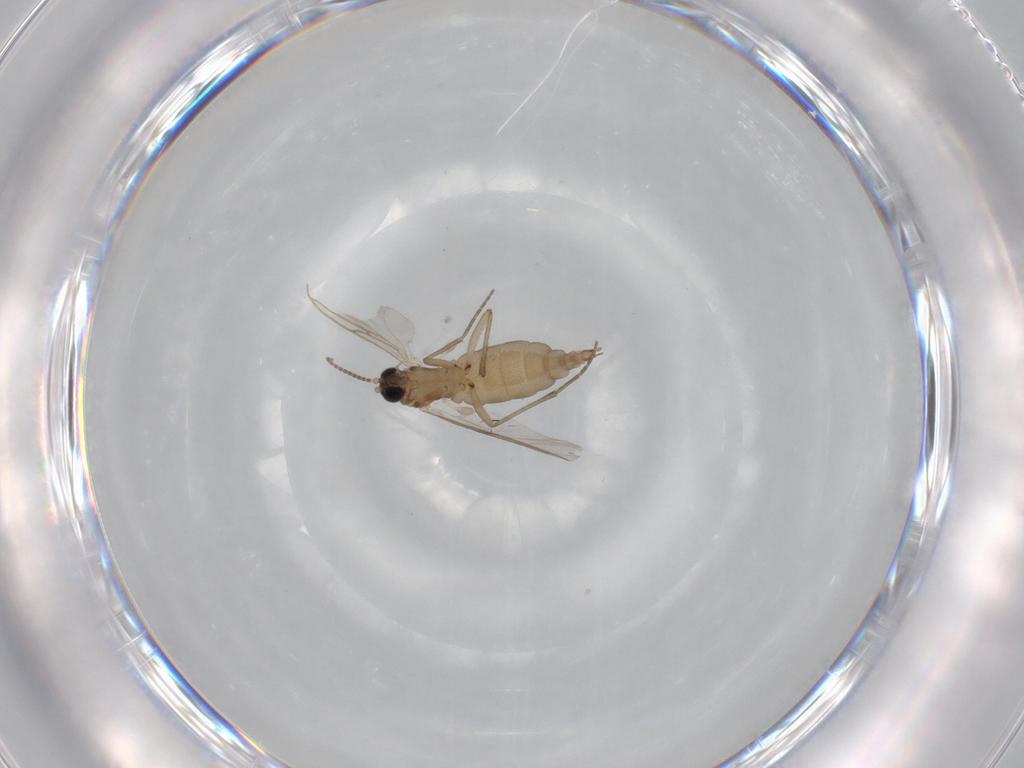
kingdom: Animalia
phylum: Arthropoda
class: Insecta
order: Diptera
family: Sciaridae
